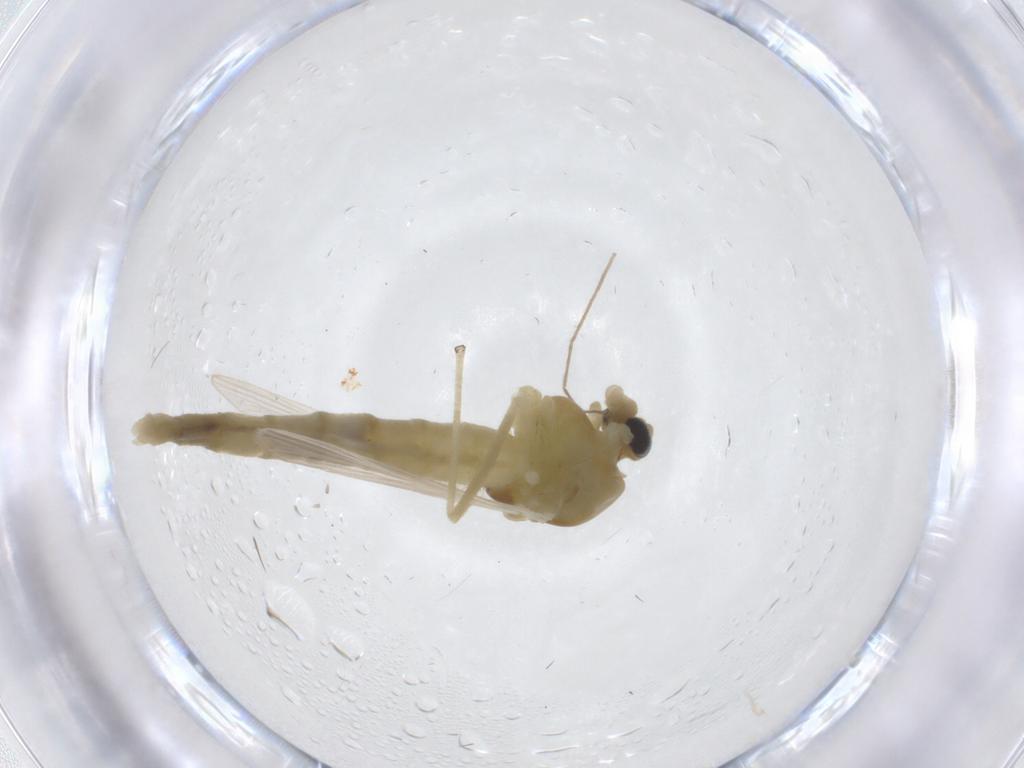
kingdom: Animalia
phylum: Arthropoda
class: Insecta
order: Diptera
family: Chironomidae
